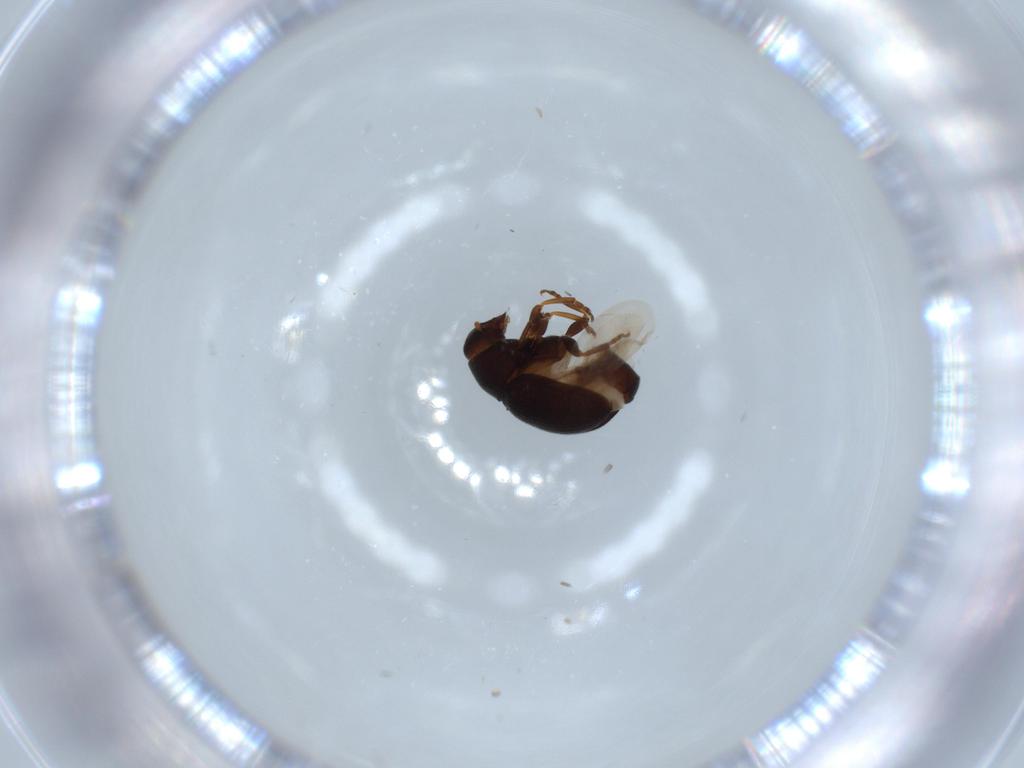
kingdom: Animalia
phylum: Arthropoda
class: Insecta
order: Coleoptera
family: Anthribidae
